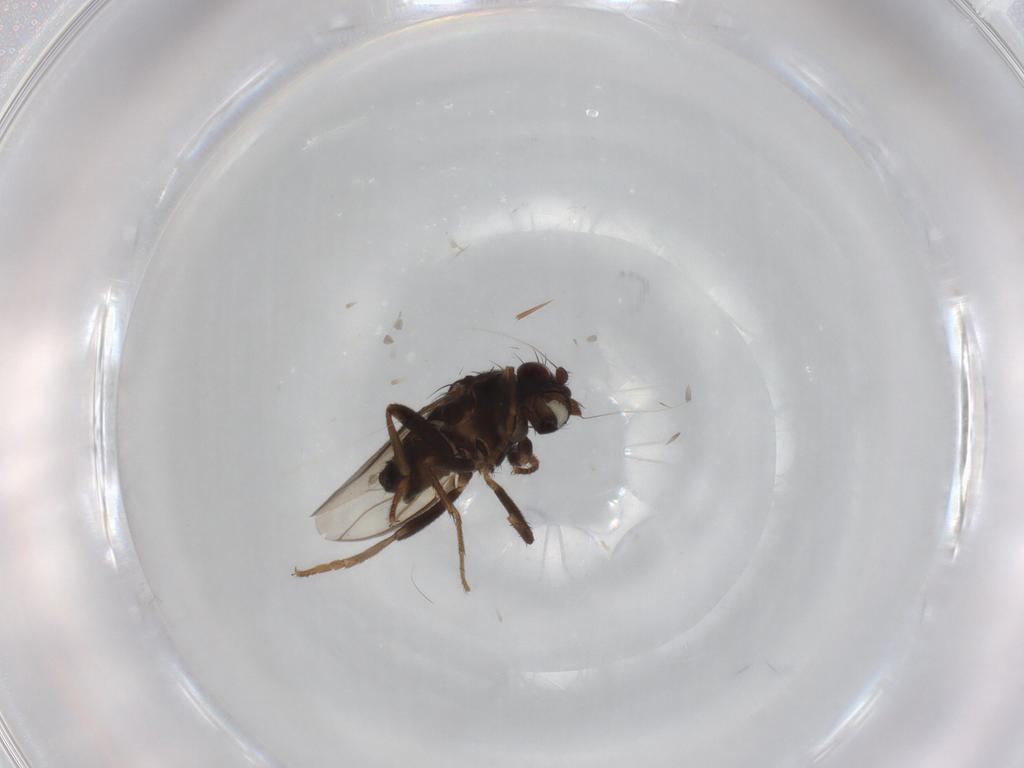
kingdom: Animalia
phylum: Arthropoda
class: Insecta
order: Diptera
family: Sphaeroceridae
